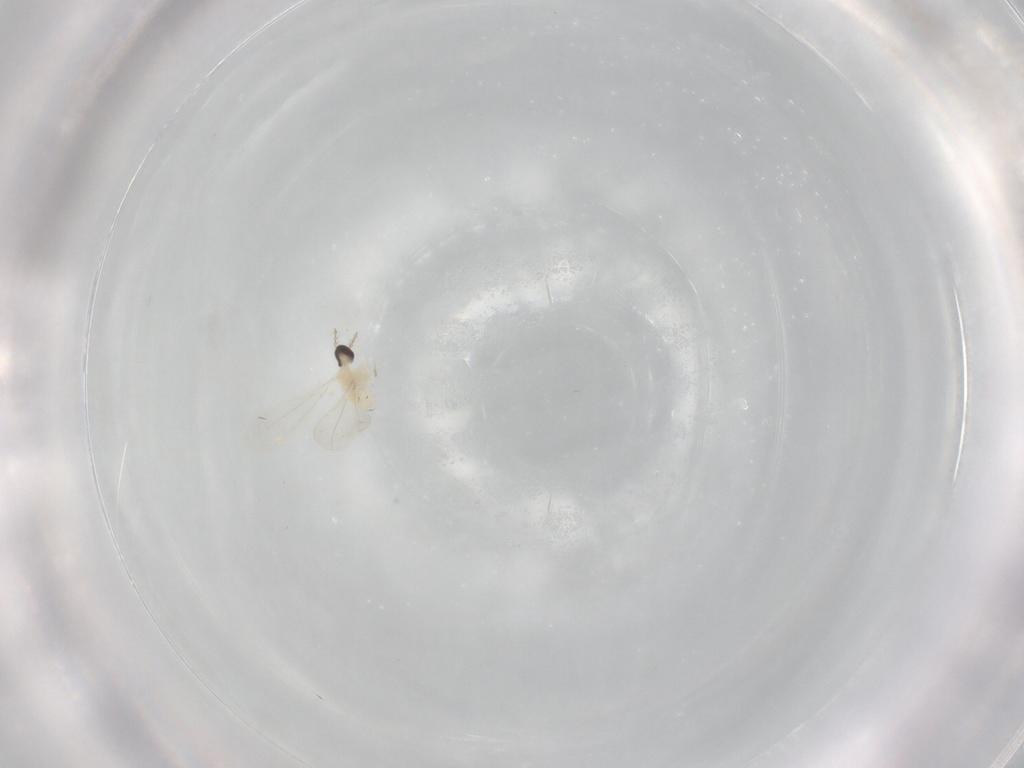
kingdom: Animalia
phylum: Arthropoda
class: Insecta
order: Diptera
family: Cecidomyiidae
